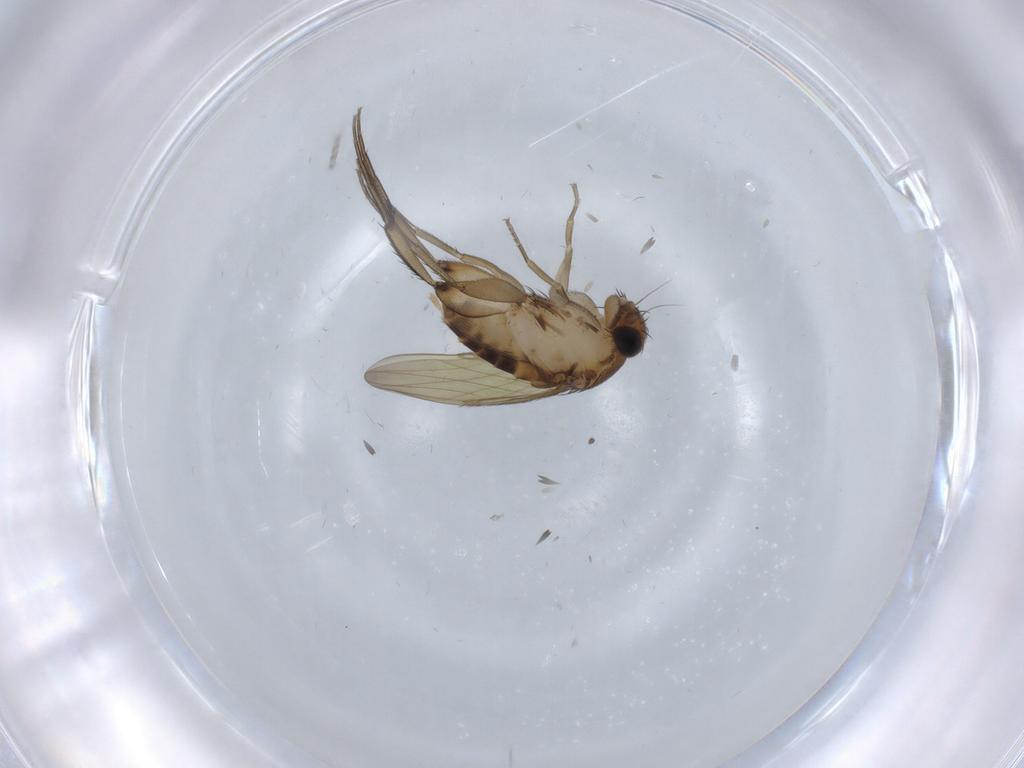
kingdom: Animalia
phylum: Arthropoda
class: Insecta
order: Diptera
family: Phoridae
